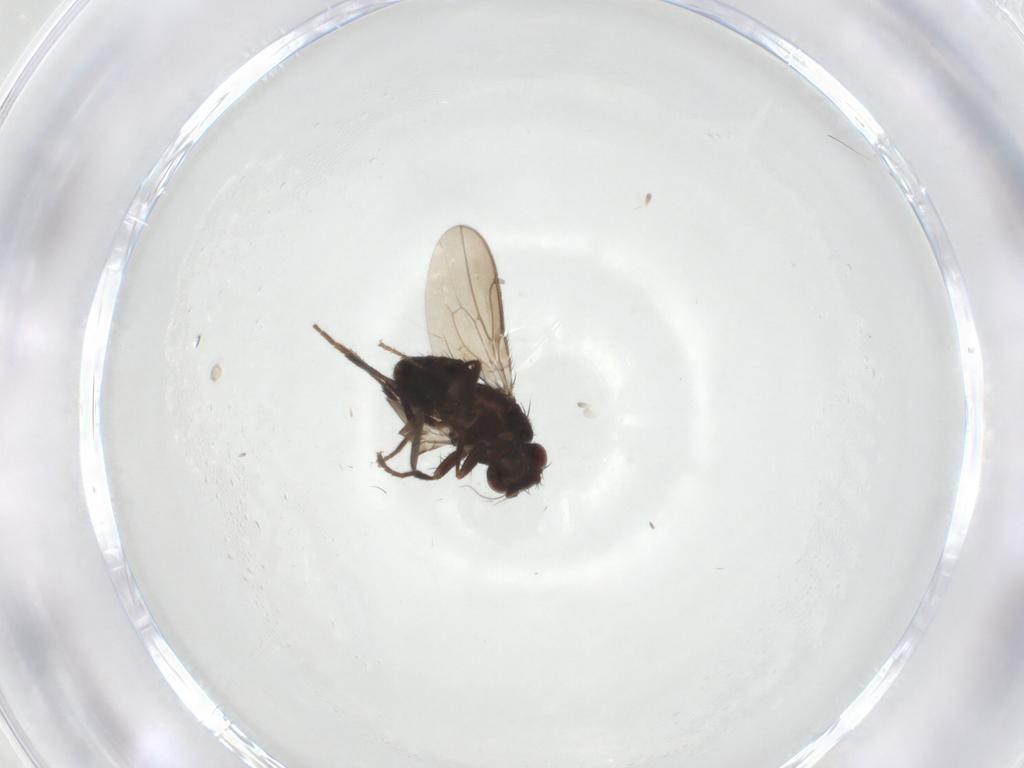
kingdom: Animalia
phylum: Arthropoda
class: Insecta
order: Diptera
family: Sphaeroceridae
